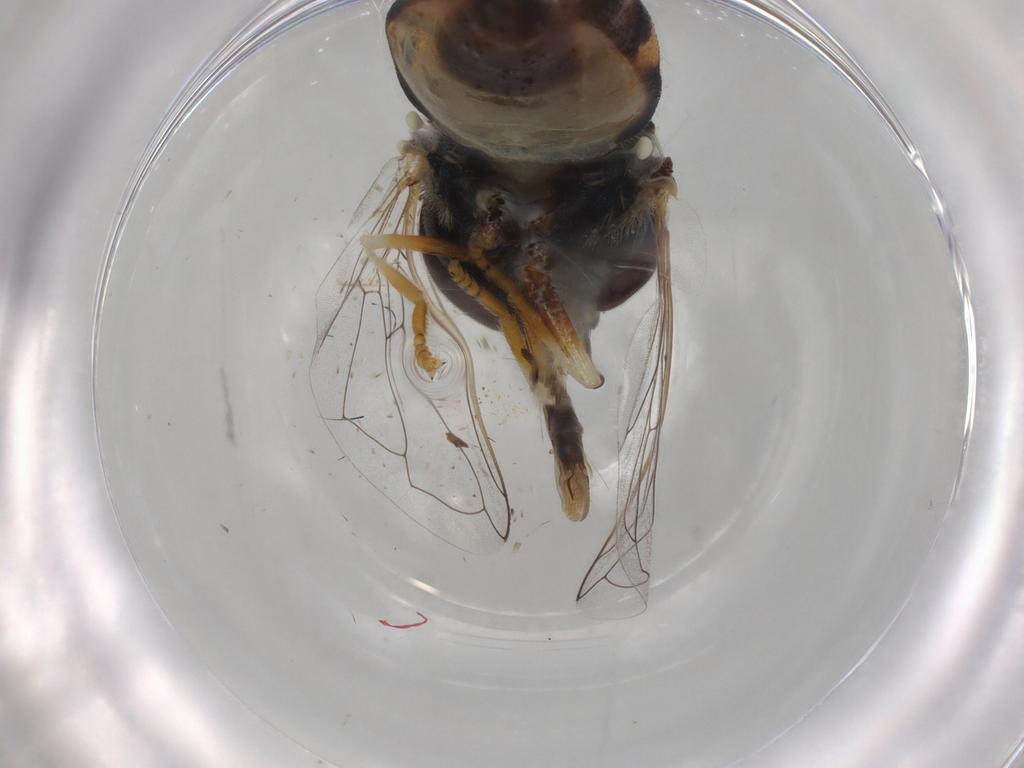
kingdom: Animalia
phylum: Arthropoda
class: Insecta
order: Diptera
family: Syrphidae
